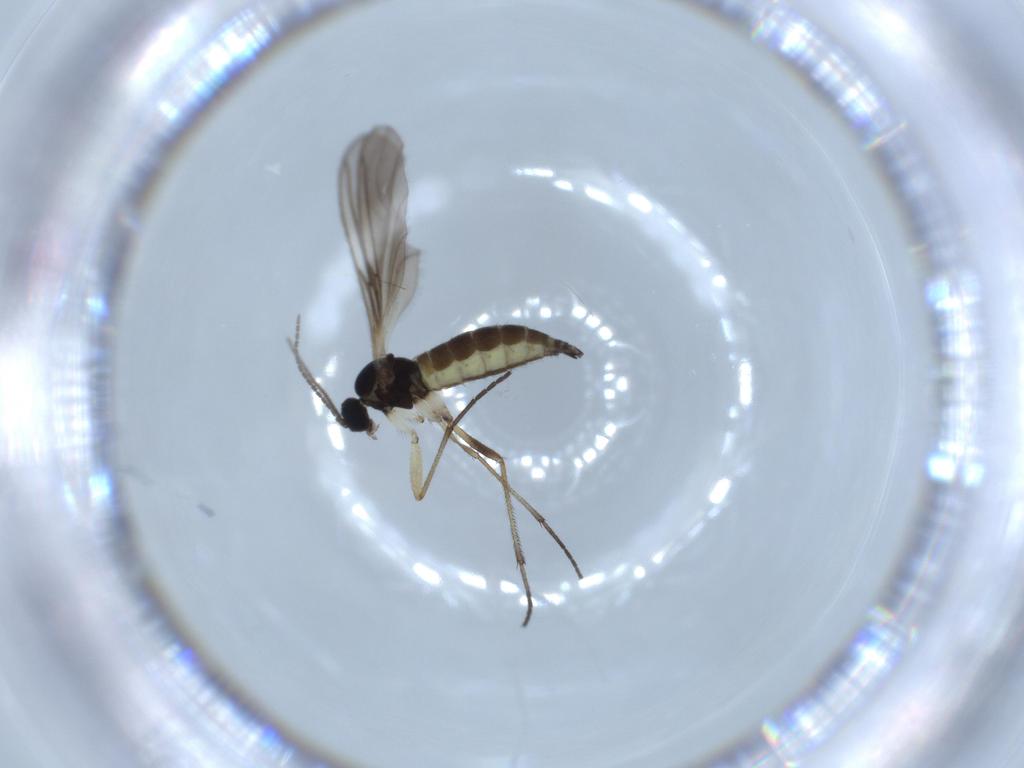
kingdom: Animalia
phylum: Arthropoda
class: Insecta
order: Diptera
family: Sciaridae
